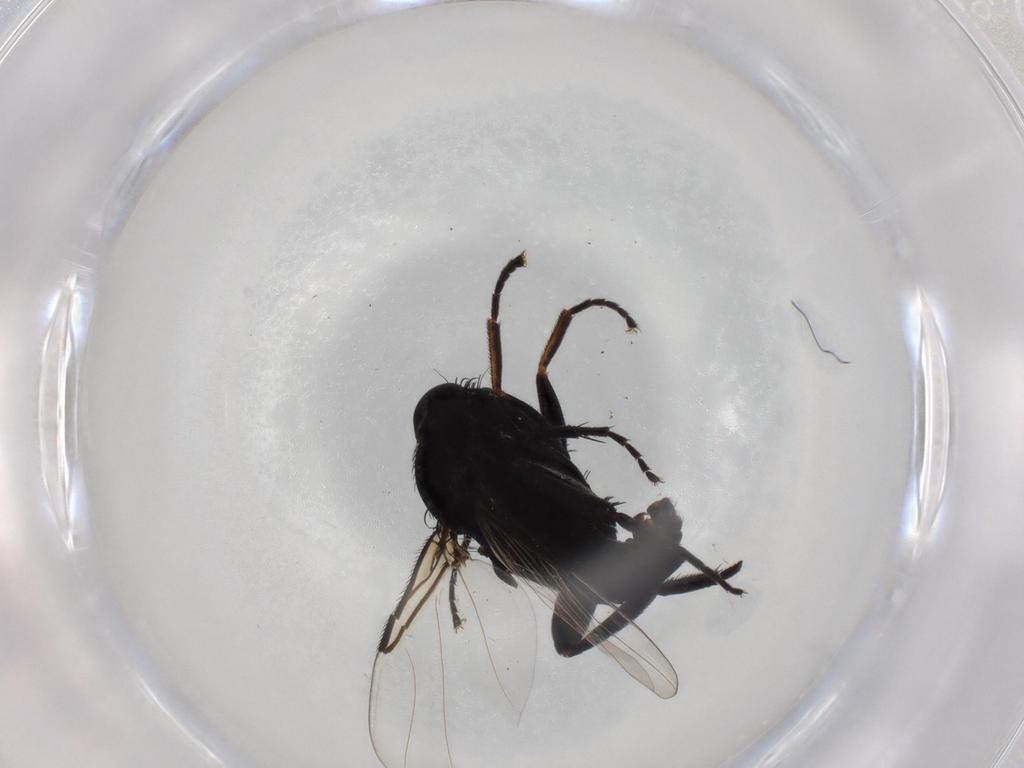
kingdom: Animalia
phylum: Arthropoda
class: Insecta
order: Diptera
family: Phoridae
